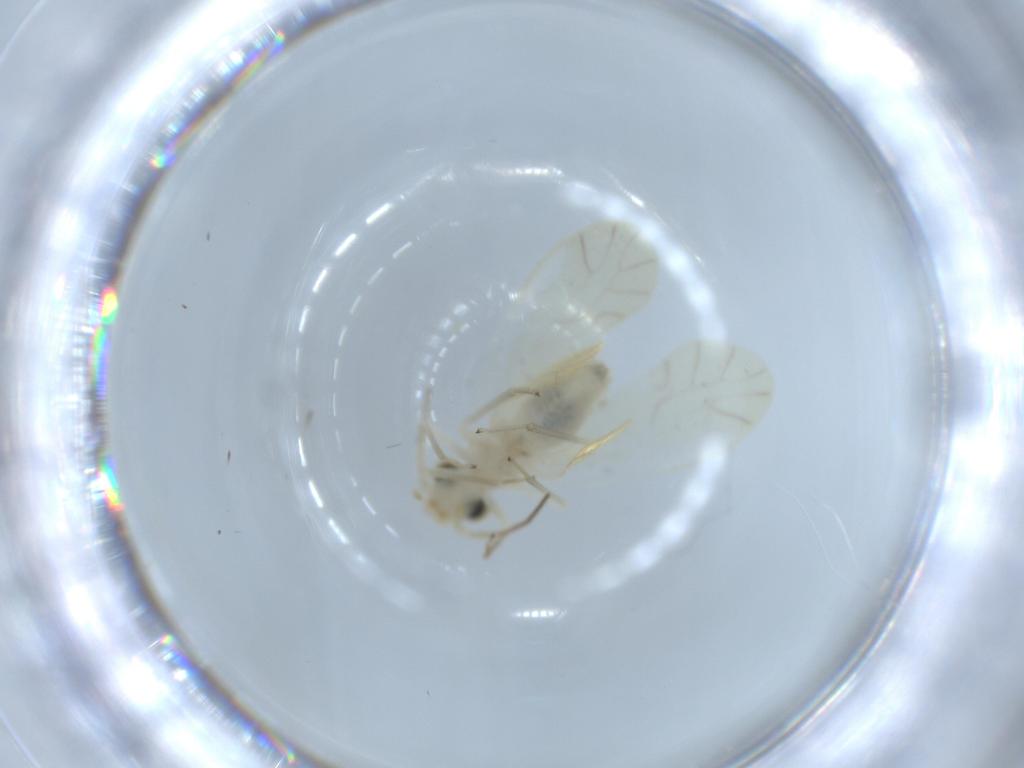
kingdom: Animalia
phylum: Arthropoda
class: Insecta
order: Psocodea
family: Caeciliusidae
